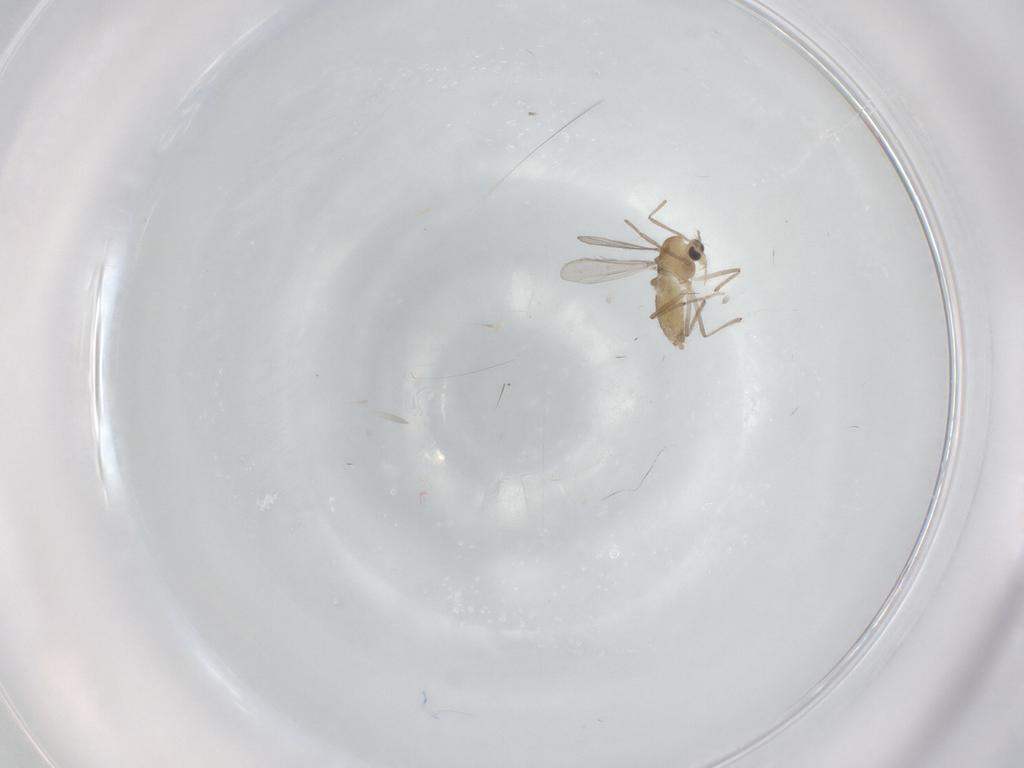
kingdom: Animalia
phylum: Arthropoda
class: Insecta
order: Diptera
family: Chironomidae
